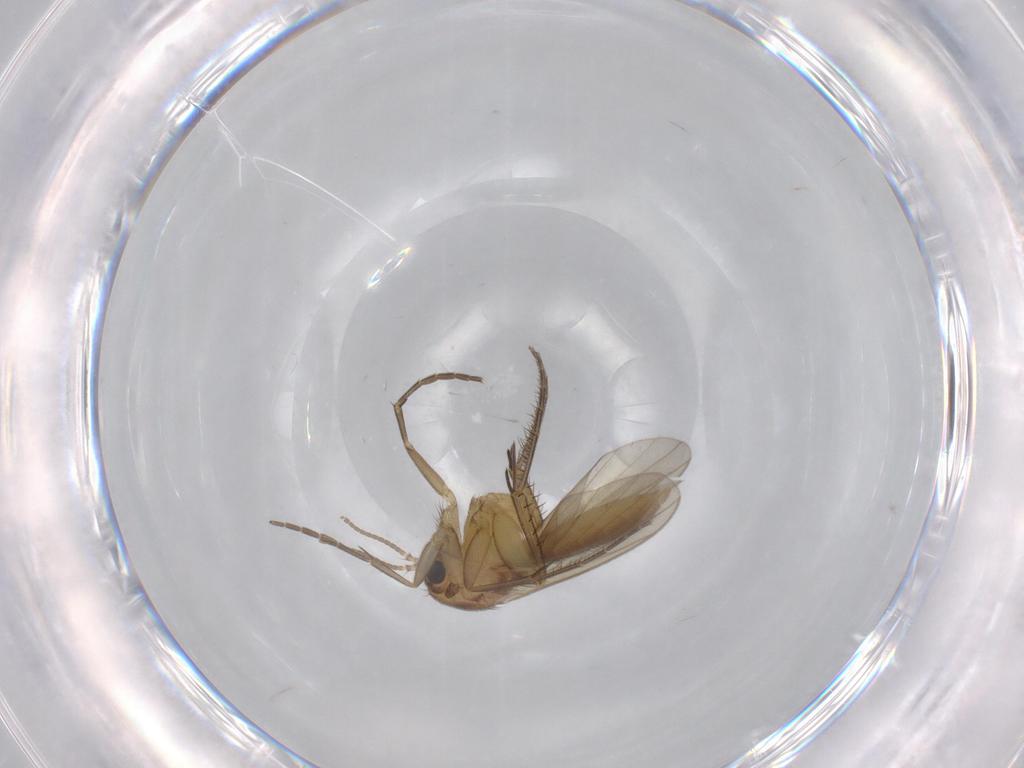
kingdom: Animalia
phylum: Arthropoda
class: Insecta
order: Diptera
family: Mycetophilidae
